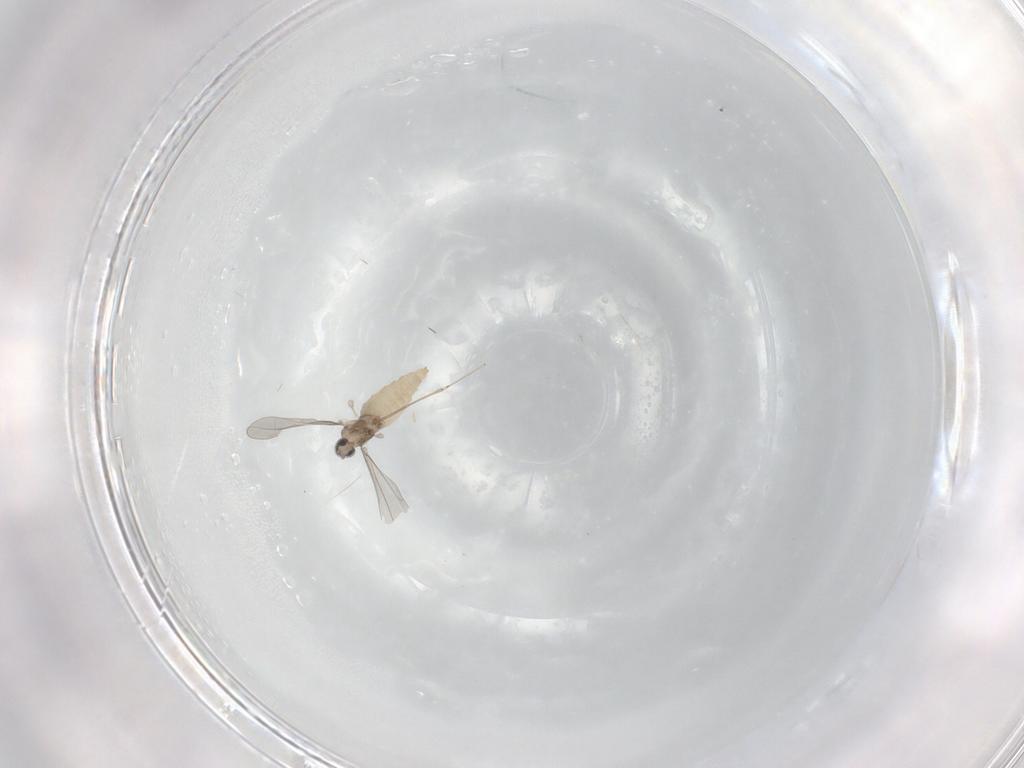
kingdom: Animalia
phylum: Arthropoda
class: Insecta
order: Diptera
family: Cecidomyiidae
